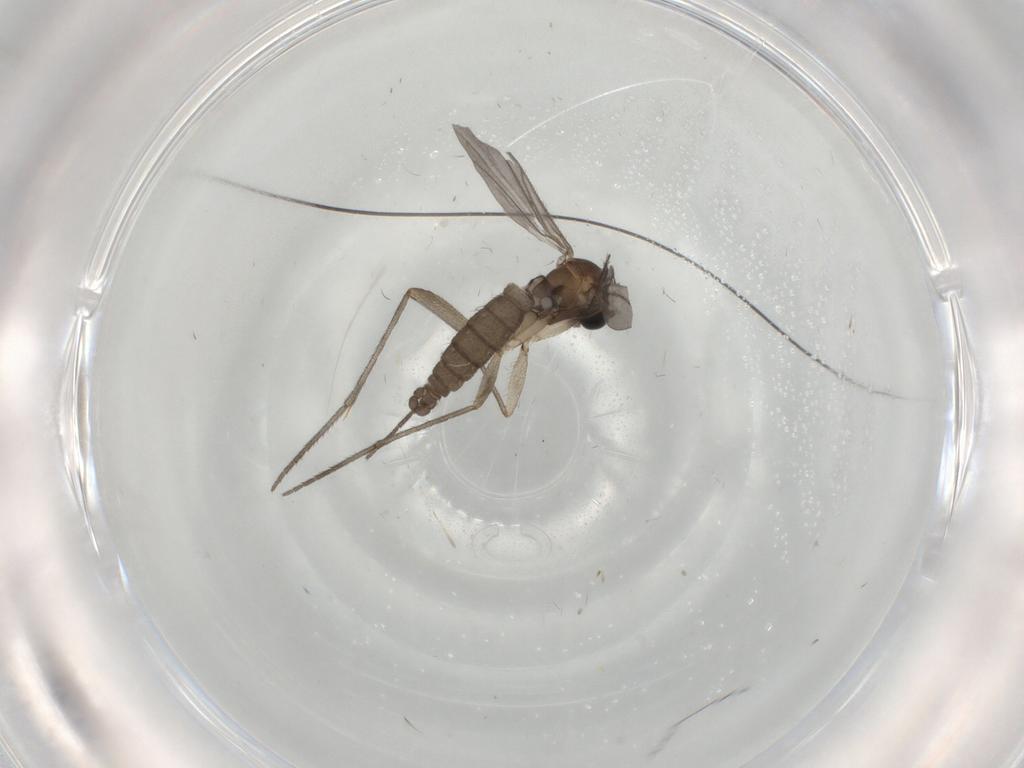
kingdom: Animalia
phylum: Arthropoda
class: Insecta
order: Diptera
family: Sciaridae
